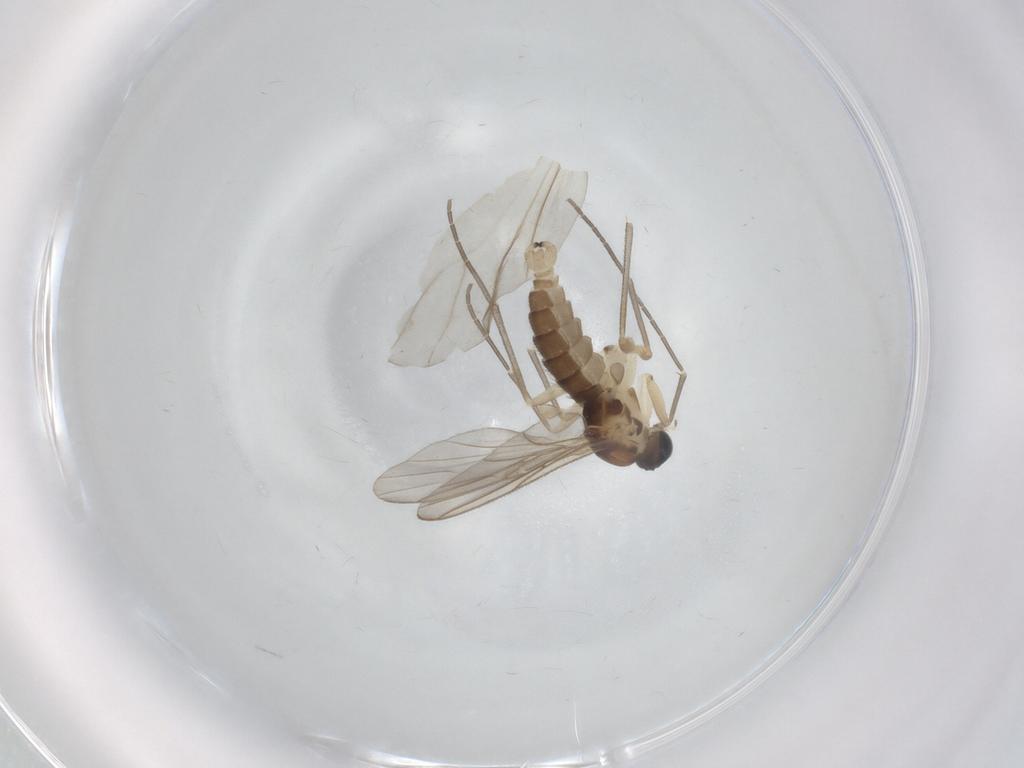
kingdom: Animalia
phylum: Arthropoda
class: Insecta
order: Diptera
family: Sciaridae
